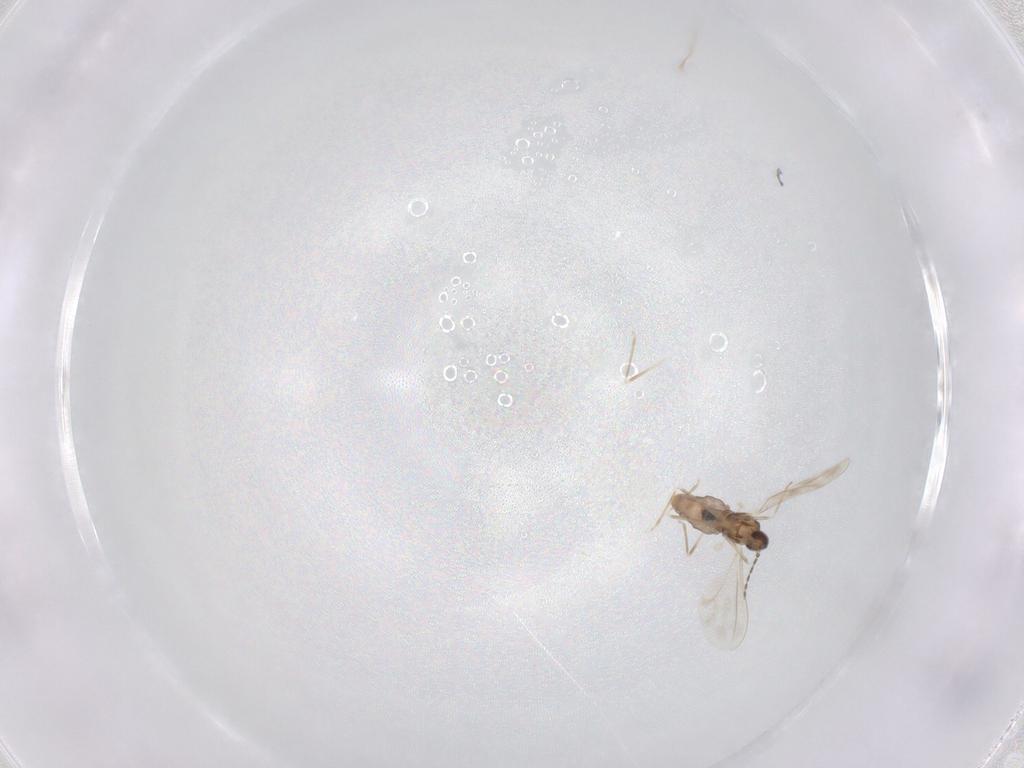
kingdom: Animalia
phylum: Arthropoda
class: Insecta
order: Diptera
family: Cecidomyiidae
